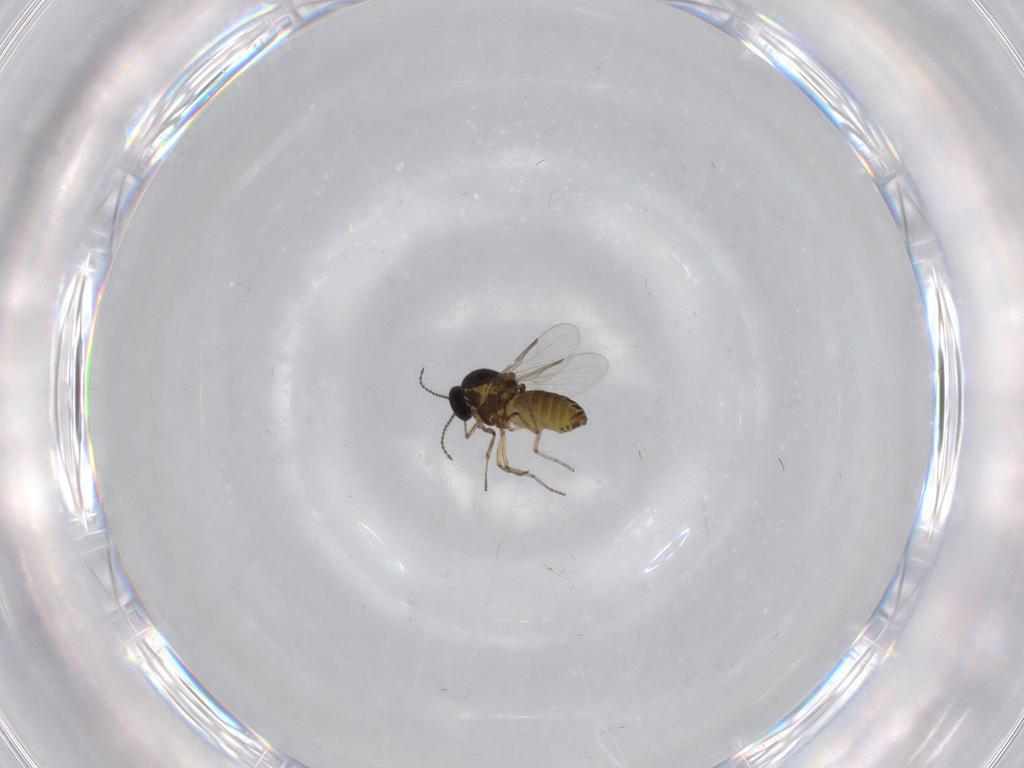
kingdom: Animalia
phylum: Arthropoda
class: Insecta
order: Diptera
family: Ceratopogonidae
